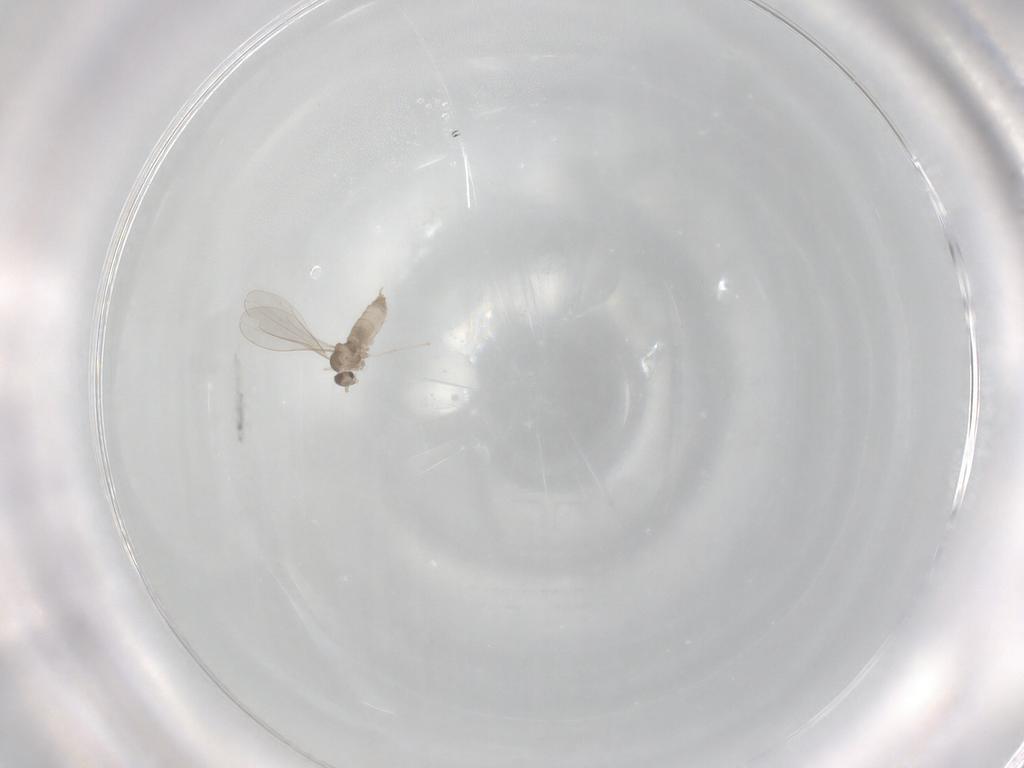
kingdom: Animalia
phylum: Arthropoda
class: Insecta
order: Diptera
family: Cecidomyiidae
